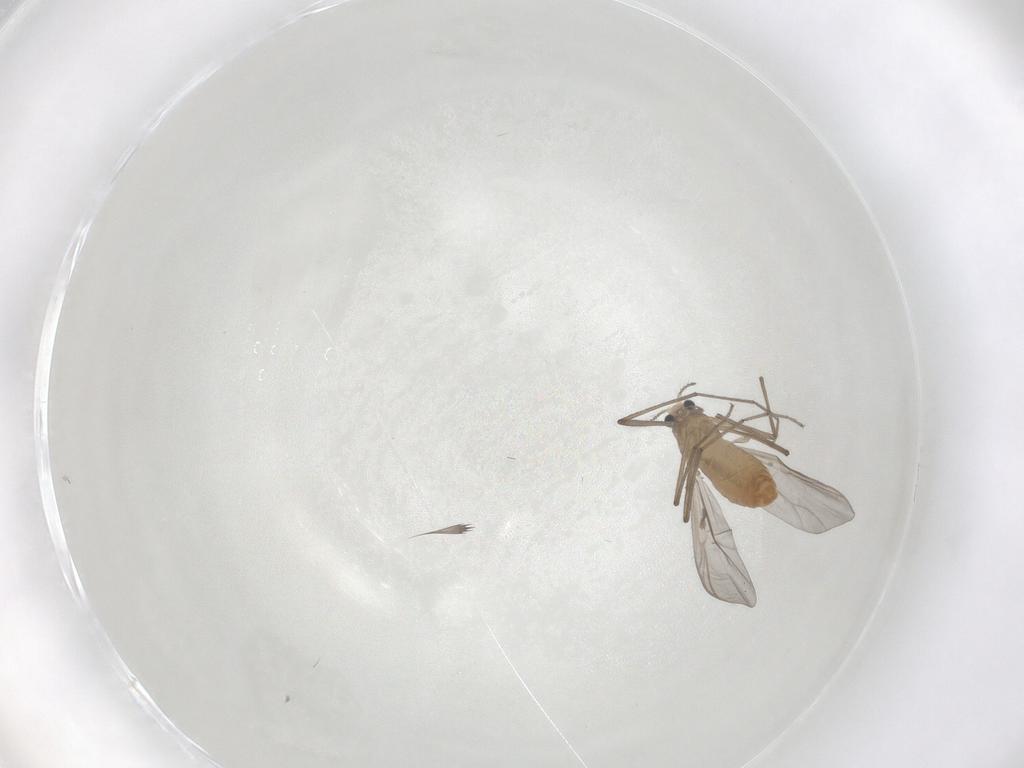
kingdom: Animalia
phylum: Arthropoda
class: Insecta
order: Diptera
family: Chironomidae
